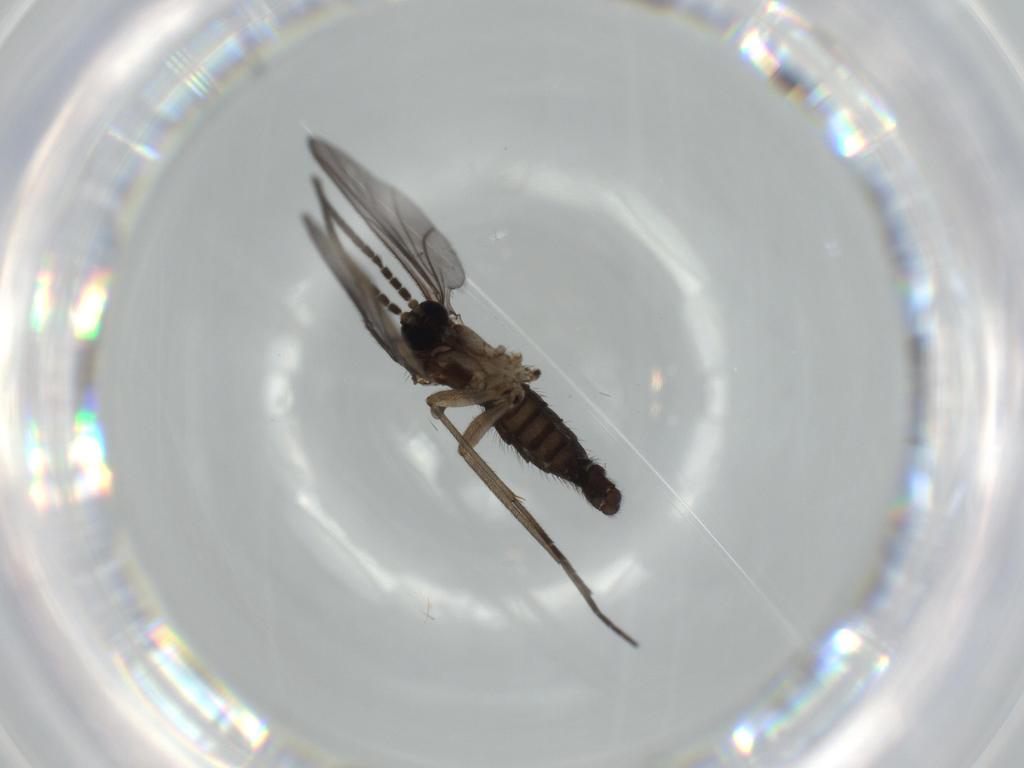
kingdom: Animalia
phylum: Arthropoda
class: Insecta
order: Diptera
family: Sciaridae
